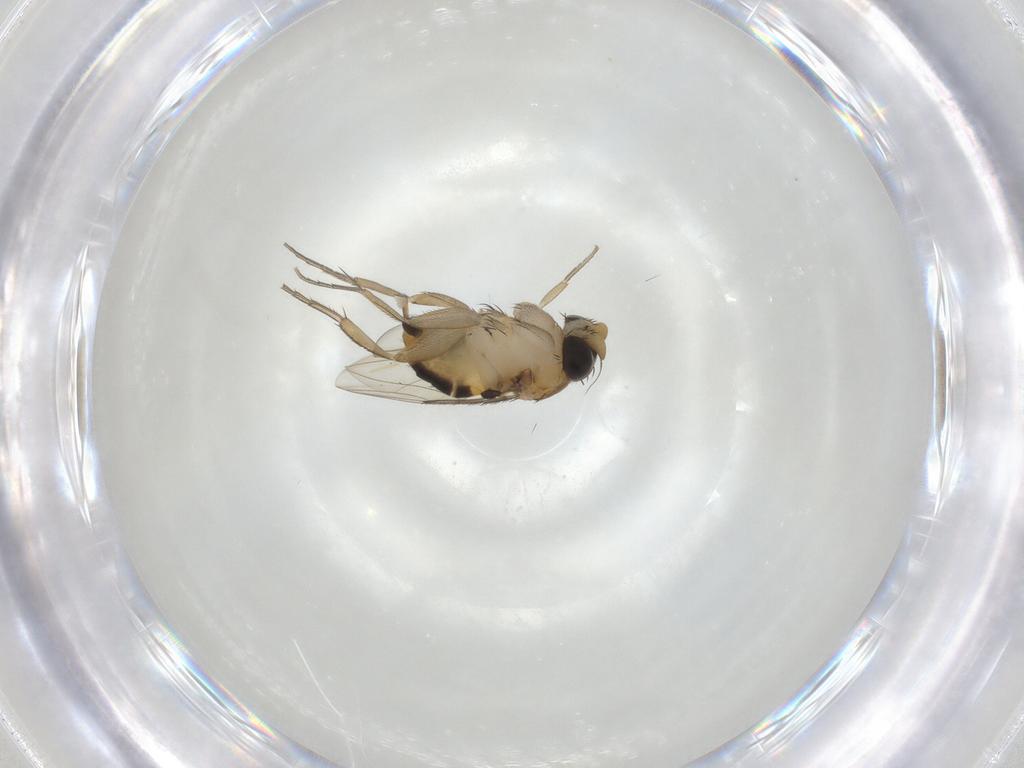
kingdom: Animalia
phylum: Arthropoda
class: Insecta
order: Diptera
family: Phoridae
